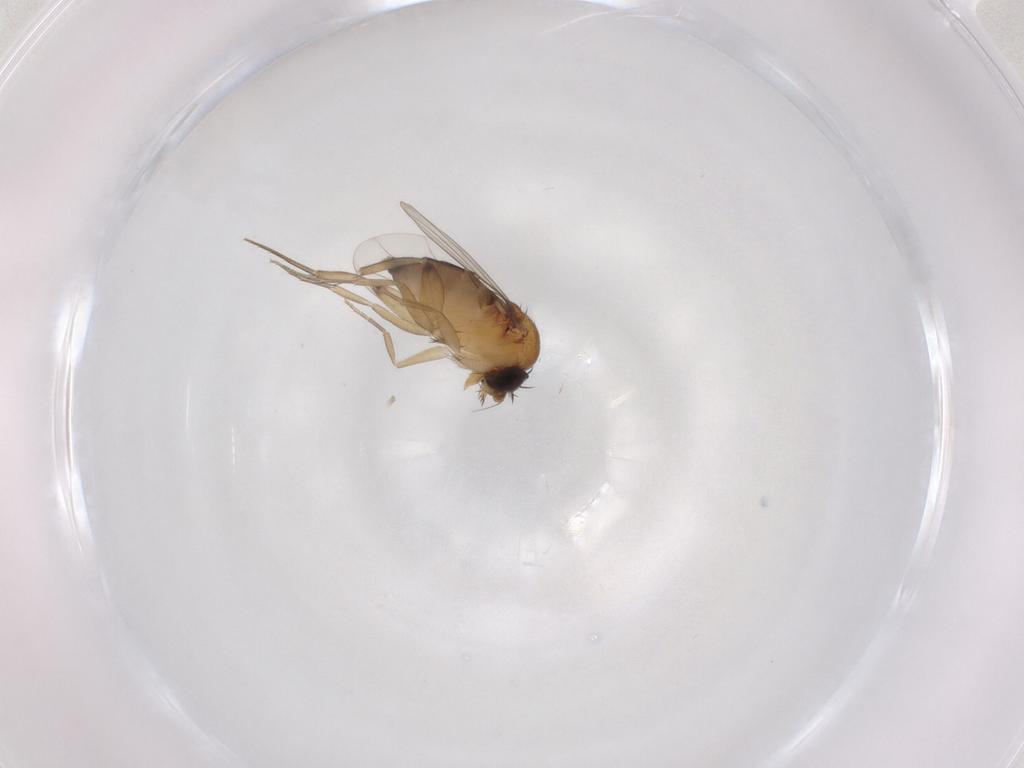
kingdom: Animalia
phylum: Arthropoda
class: Insecta
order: Diptera
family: Phoridae
